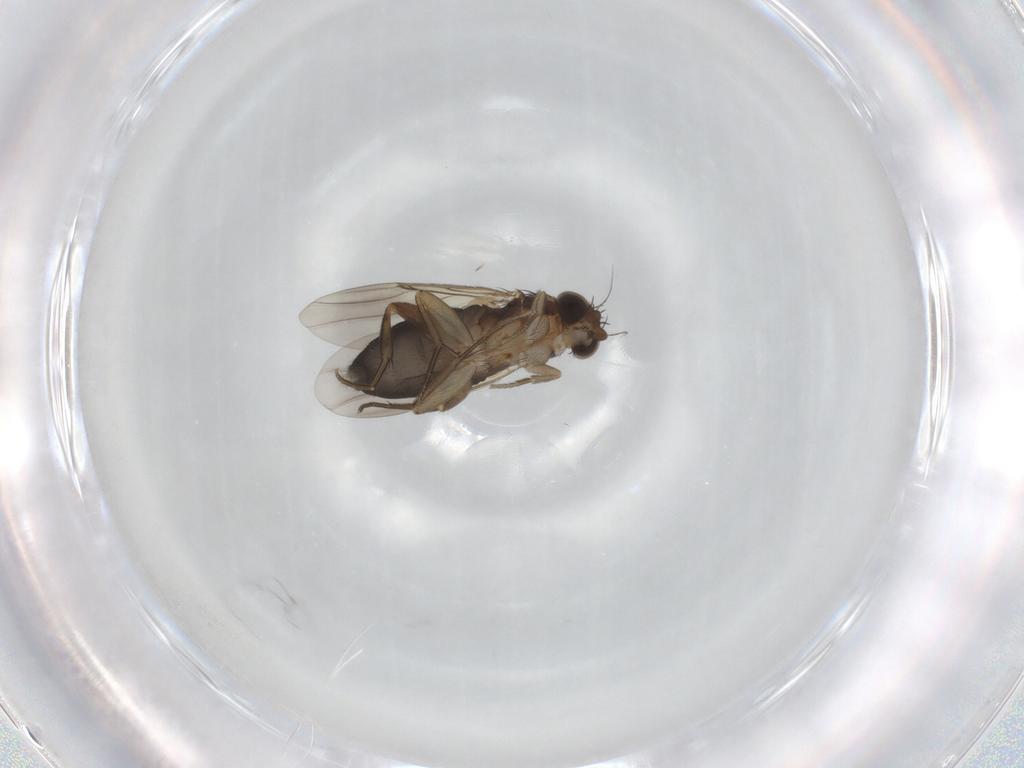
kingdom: Animalia
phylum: Arthropoda
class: Insecta
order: Diptera
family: Phoridae
